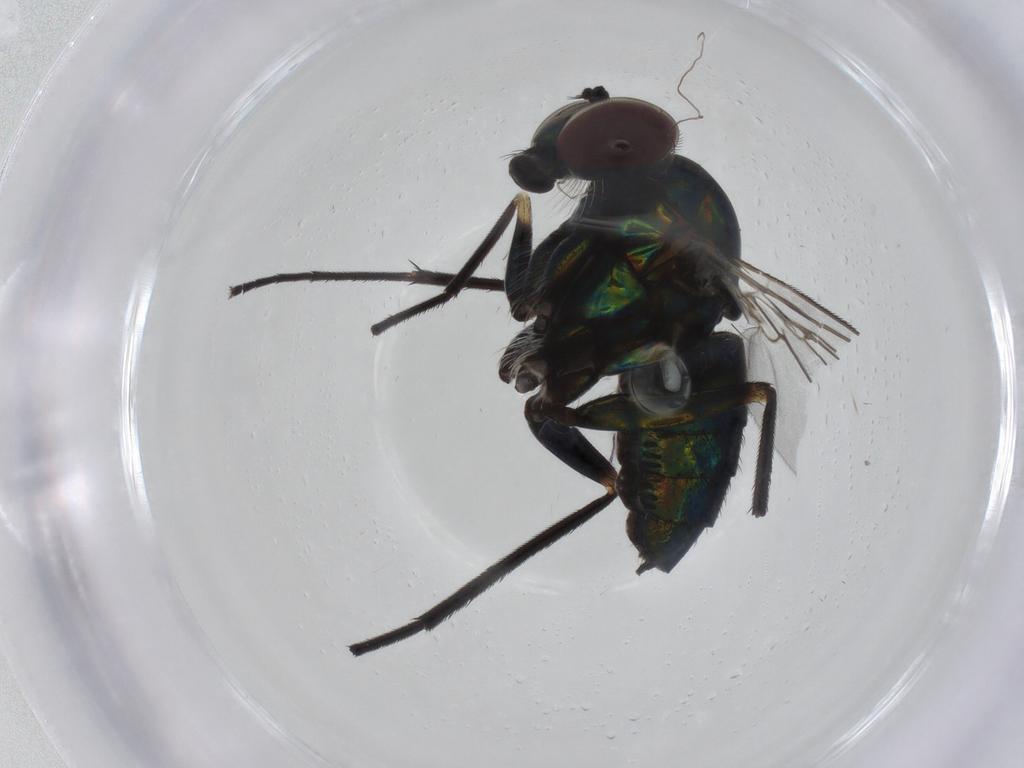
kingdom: Animalia
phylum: Arthropoda
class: Insecta
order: Diptera
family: Dolichopodidae
